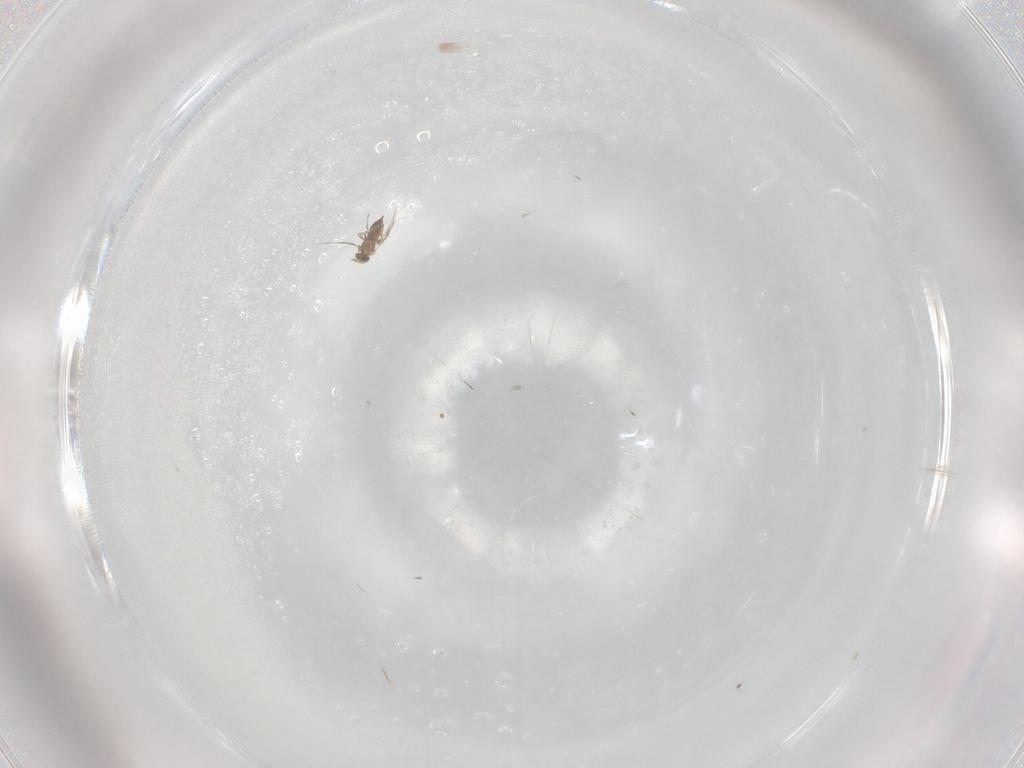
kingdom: Animalia
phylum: Arthropoda
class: Insecta
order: Hymenoptera
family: Trichogrammatidae
